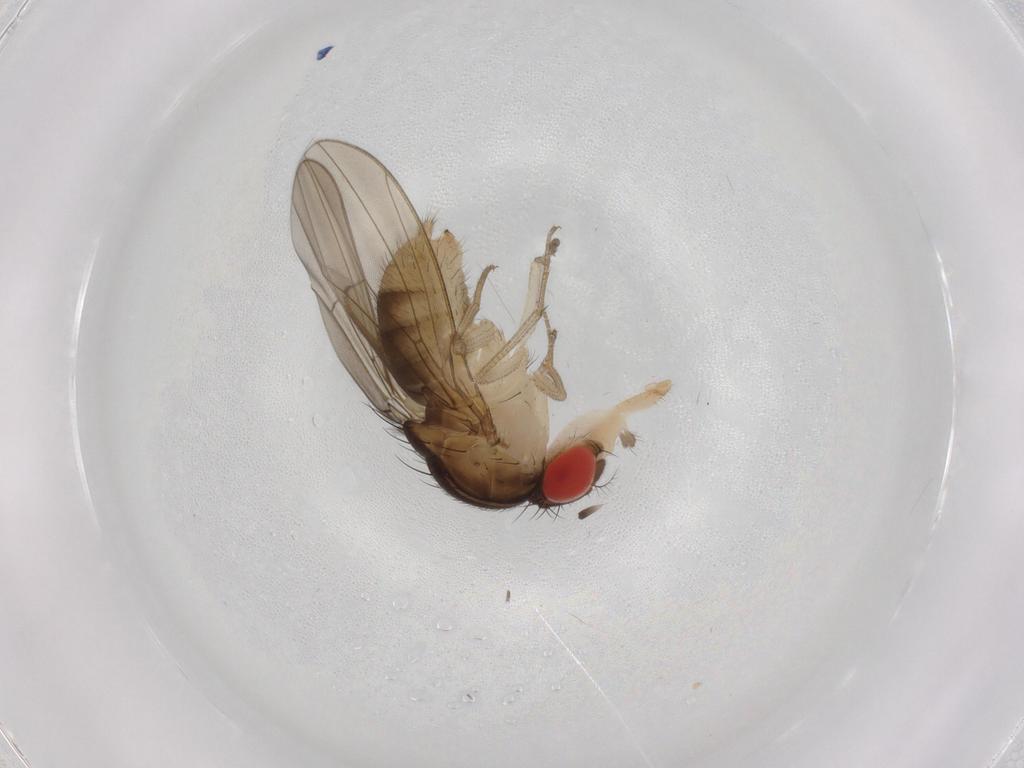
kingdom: Animalia
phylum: Arthropoda
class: Insecta
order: Diptera
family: Drosophilidae
